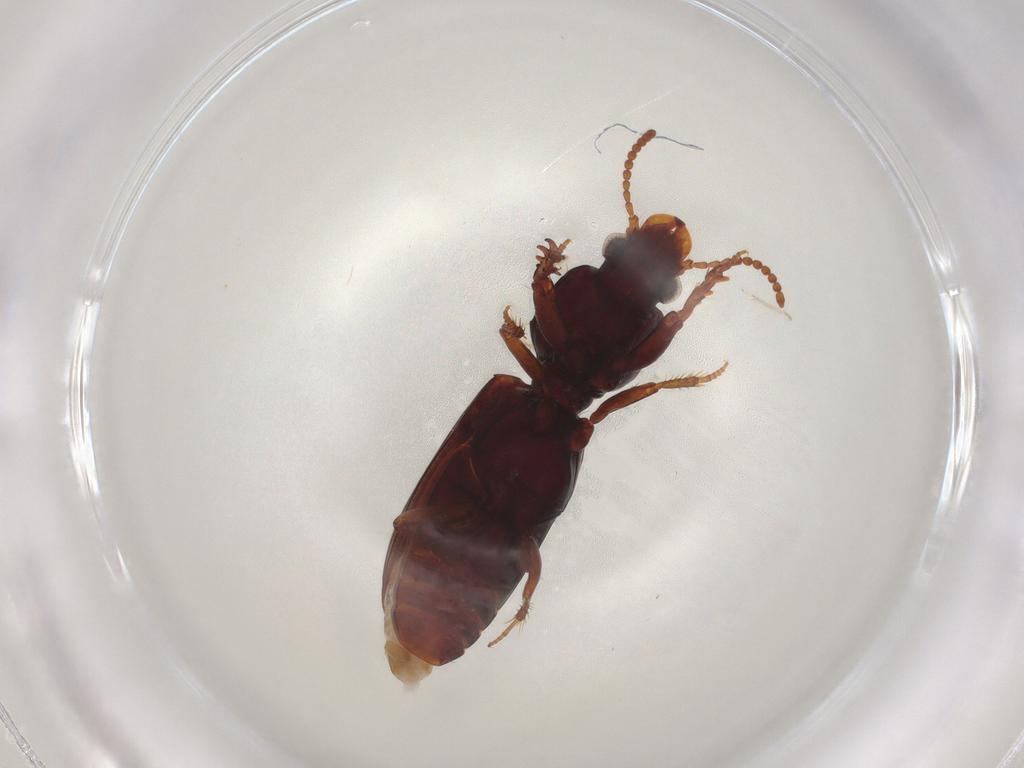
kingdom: Animalia
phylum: Arthropoda
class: Insecta
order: Coleoptera
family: Carabidae
